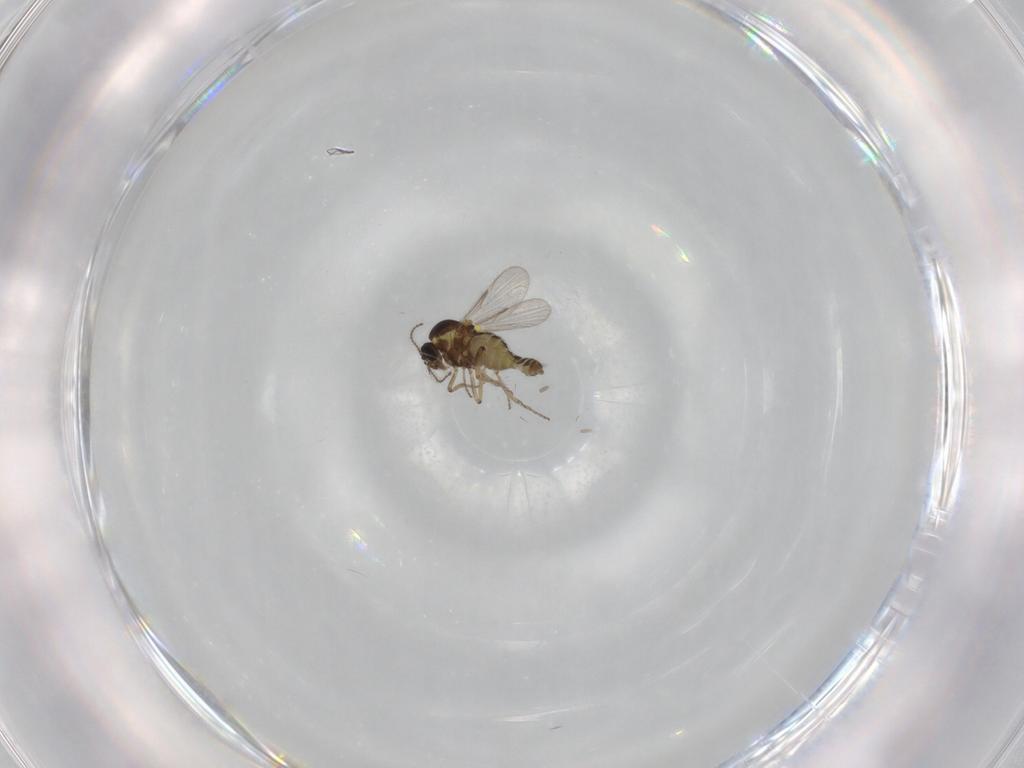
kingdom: Animalia
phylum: Arthropoda
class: Insecta
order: Diptera
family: Ceratopogonidae
